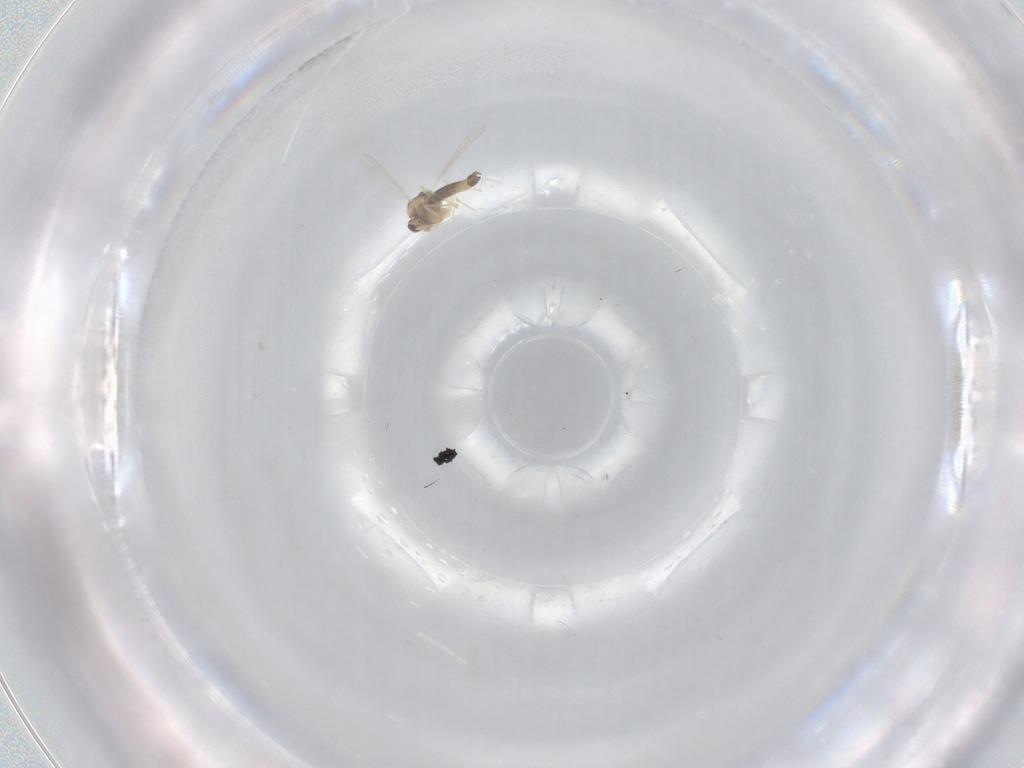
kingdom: Animalia
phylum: Arthropoda
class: Insecta
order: Diptera
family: Chironomidae
